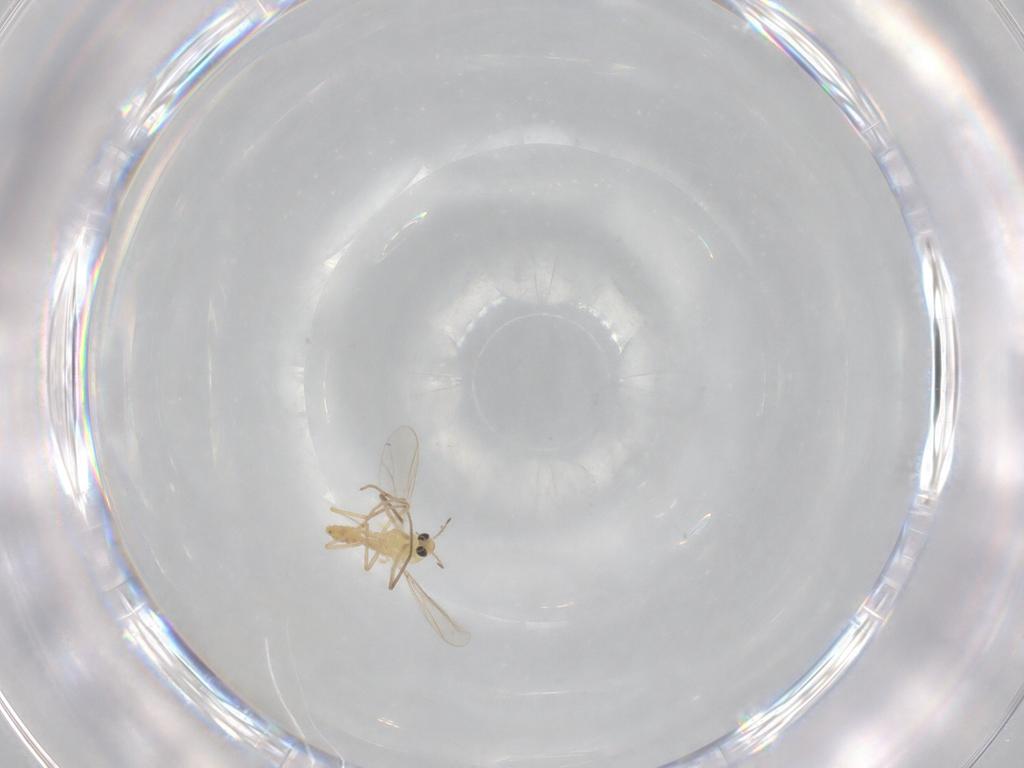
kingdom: Animalia
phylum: Arthropoda
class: Insecta
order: Diptera
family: Chironomidae
